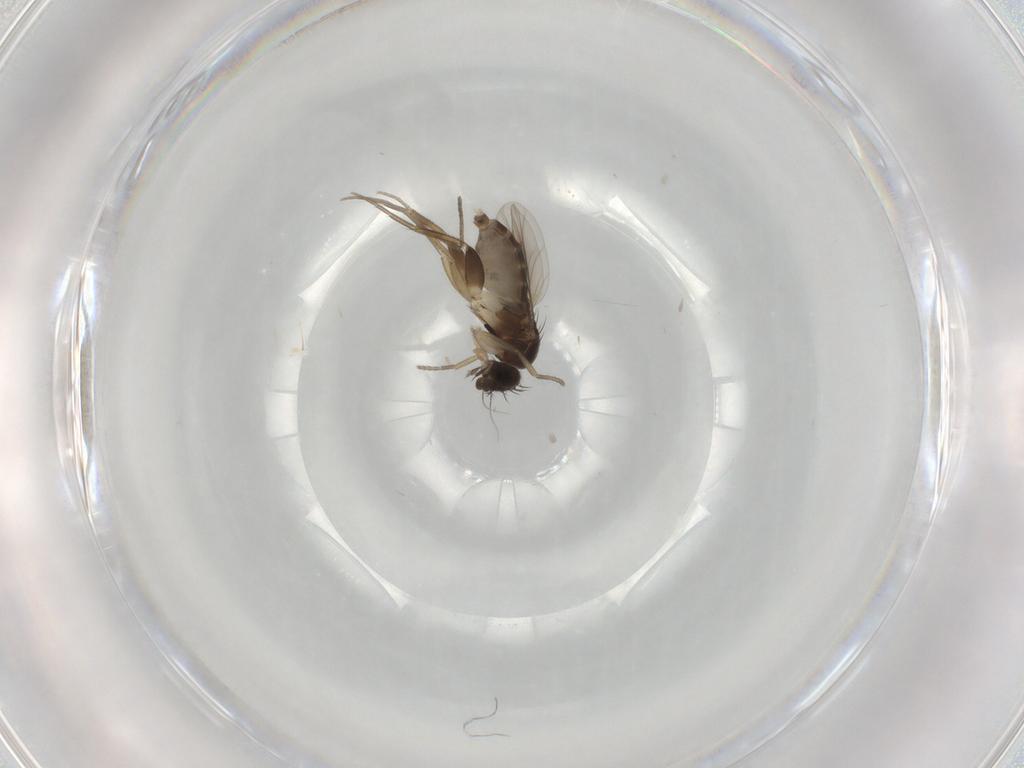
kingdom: Animalia
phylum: Arthropoda
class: Insecta
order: Diptera
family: Phoridae
